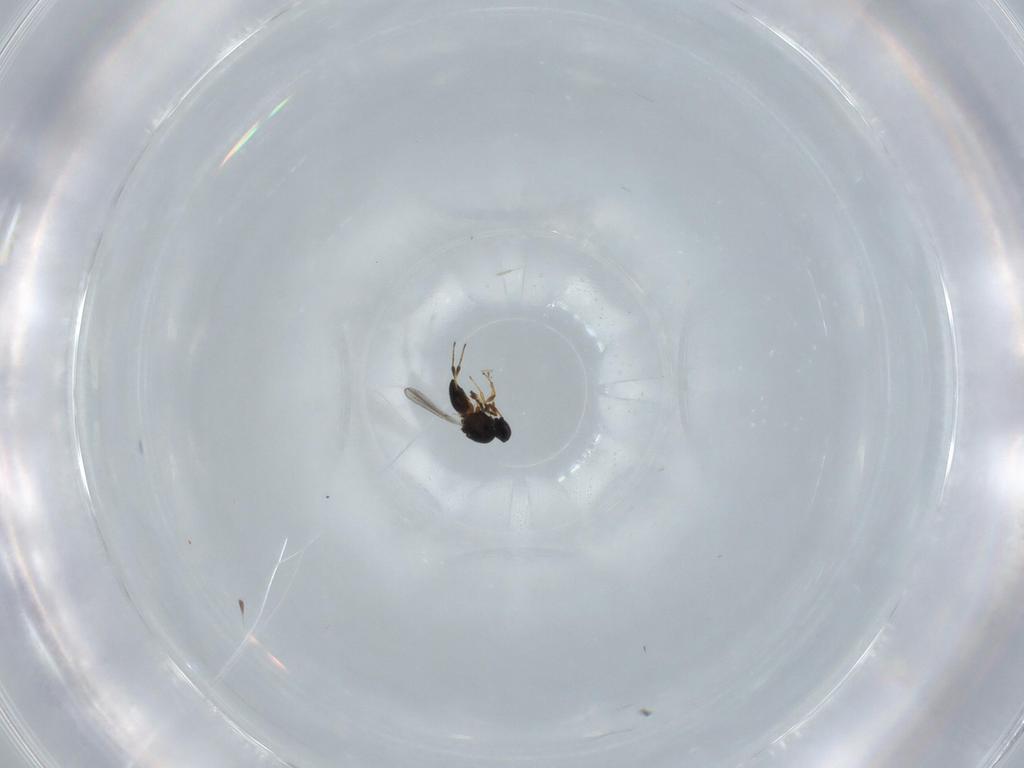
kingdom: Animalia
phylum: Arthropoda
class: Insecta
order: Hymenoptera
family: Platygastridae
